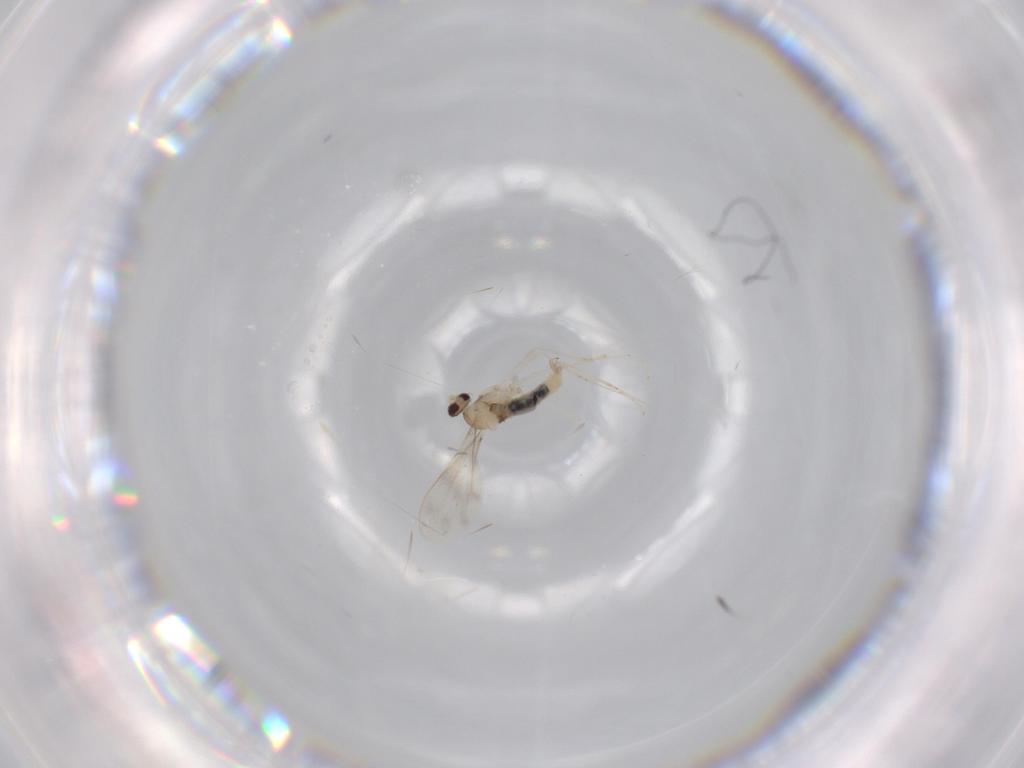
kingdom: Animalia
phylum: Arthropoda
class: Insecta
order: Diptera
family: Cecidomyiidae
